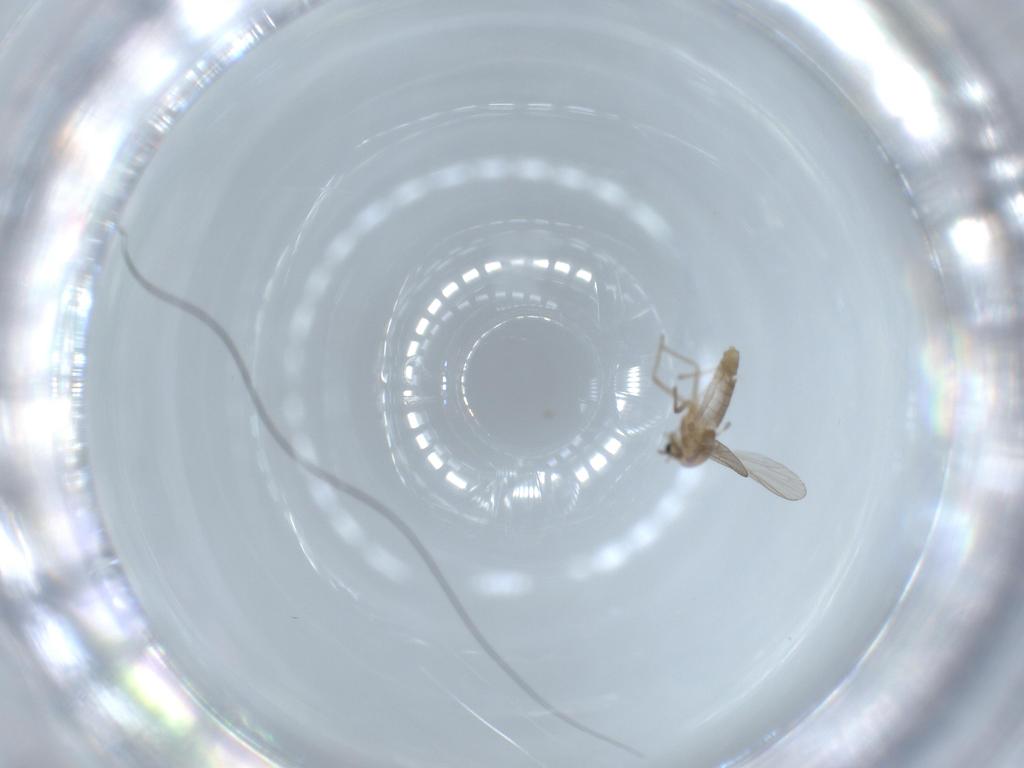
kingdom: Animalia
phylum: Arthropoda
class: Insecta
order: Diptera
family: Chironomidae
